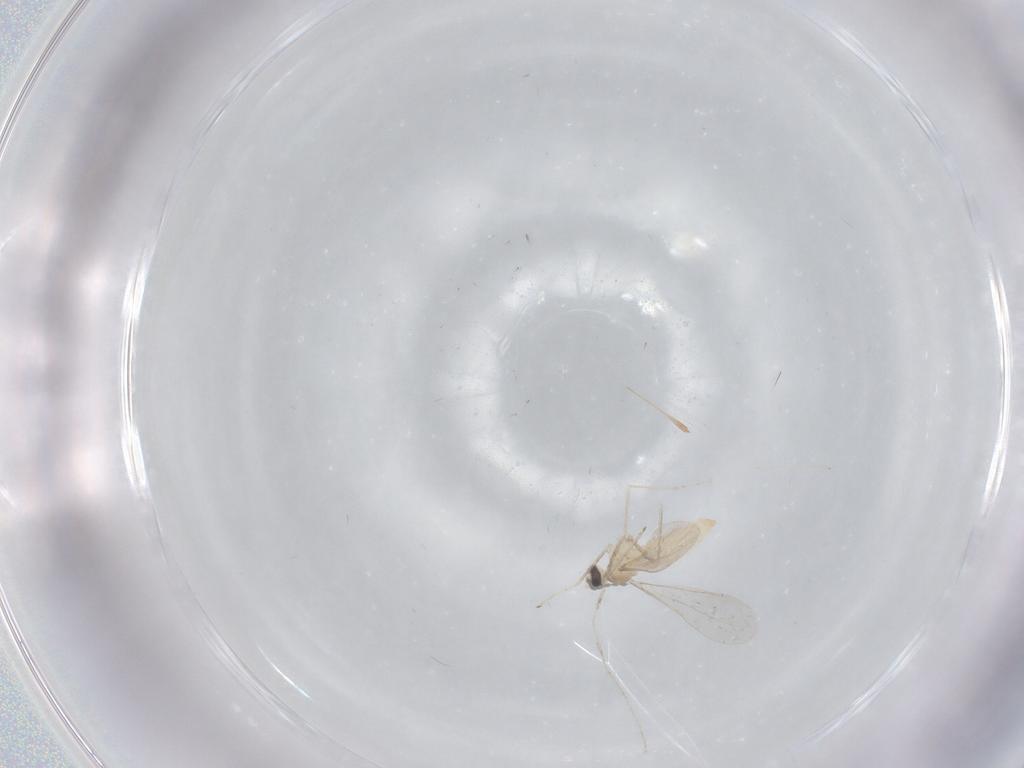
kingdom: Animalia
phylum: Arthropoda
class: Insecta
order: Diptera
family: Cecidomyiidae
